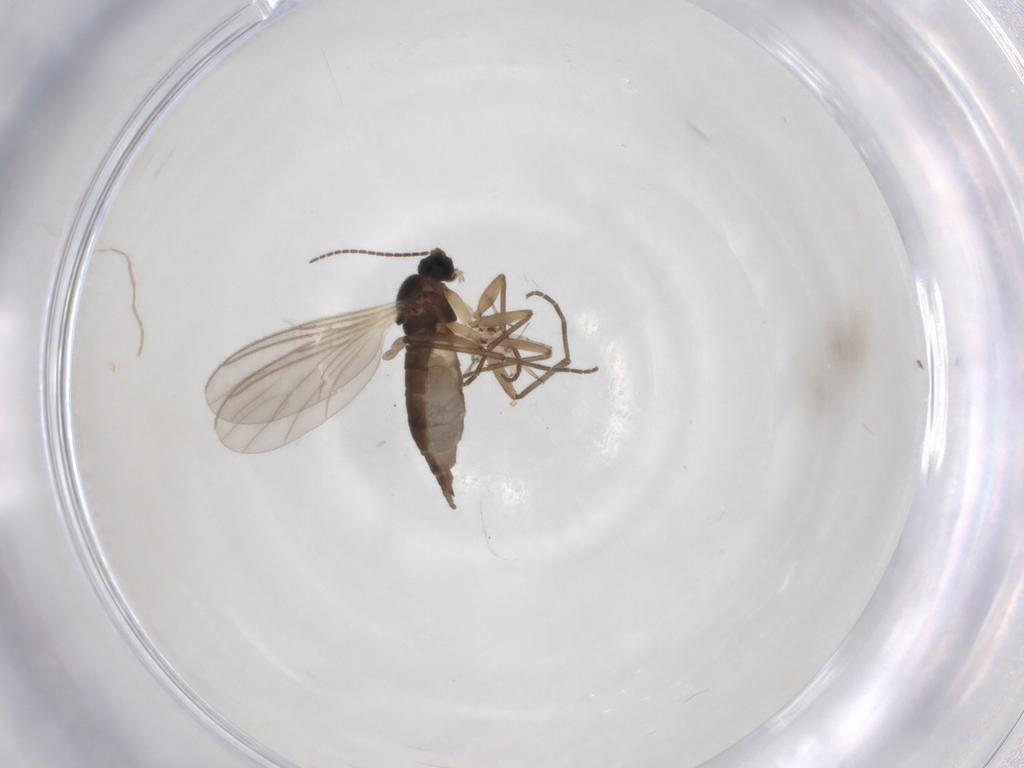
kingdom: Animalia
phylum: Arthropoda
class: Insecta
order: Diptera
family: Sciaridae
